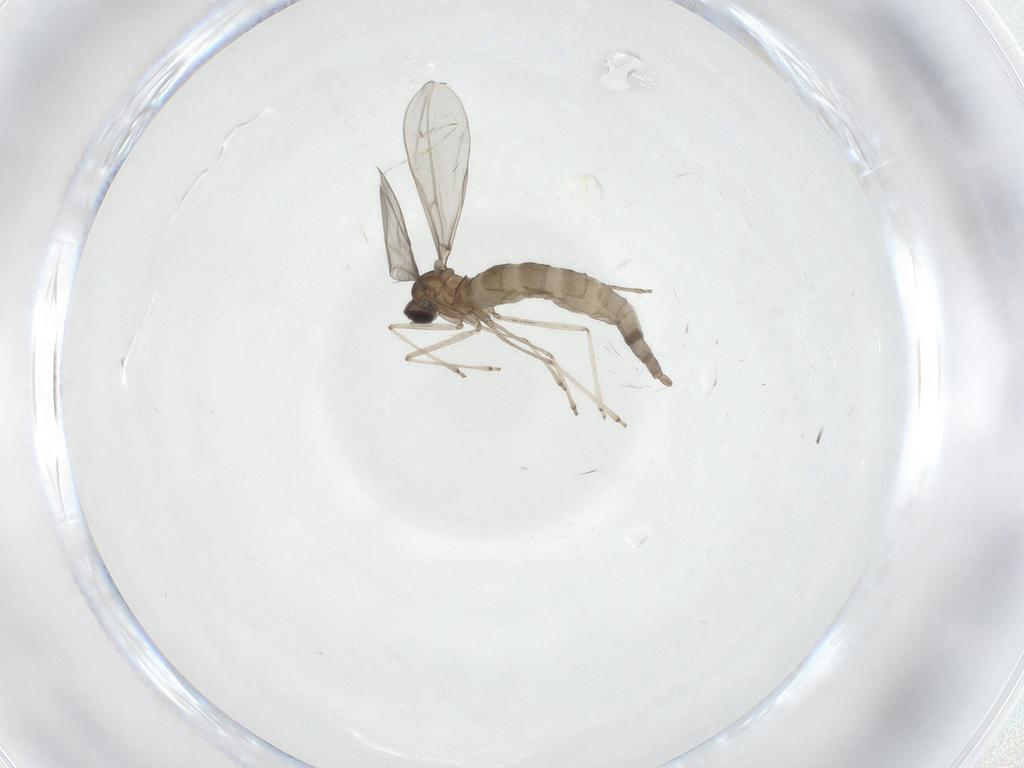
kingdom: Animalia
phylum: Arthropoda
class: Insecta
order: Diptera
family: Cecidomyiidae
